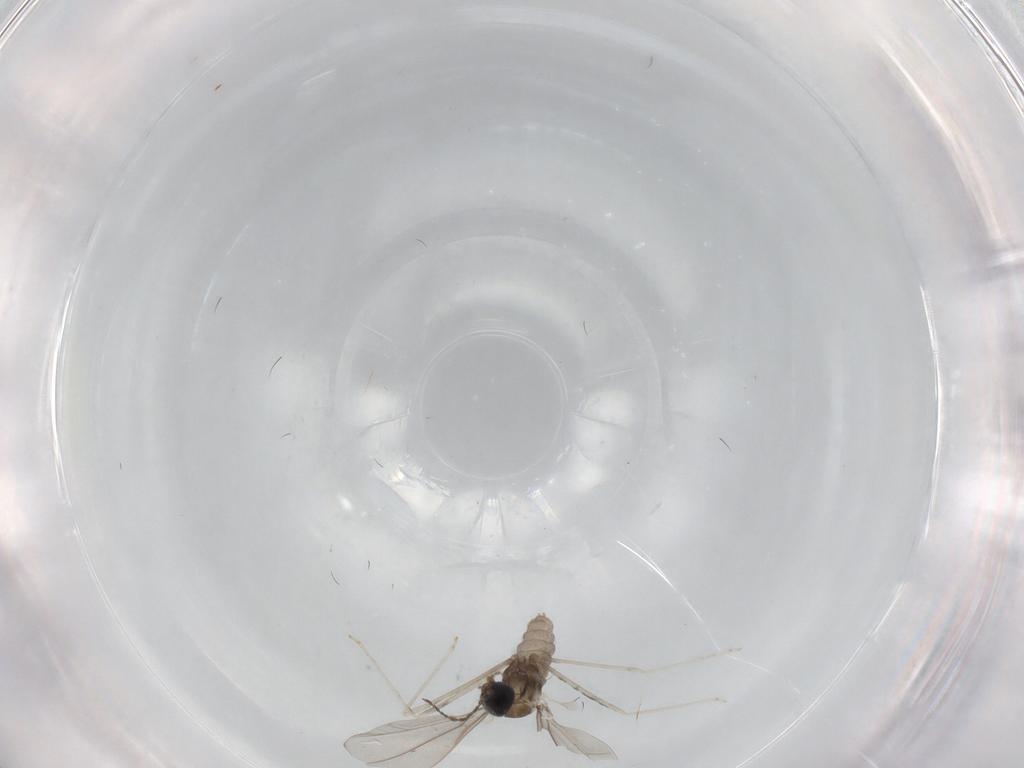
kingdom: Animalia
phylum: Arthropoda
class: Insecta
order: Diptera
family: Cecidomyiidae
